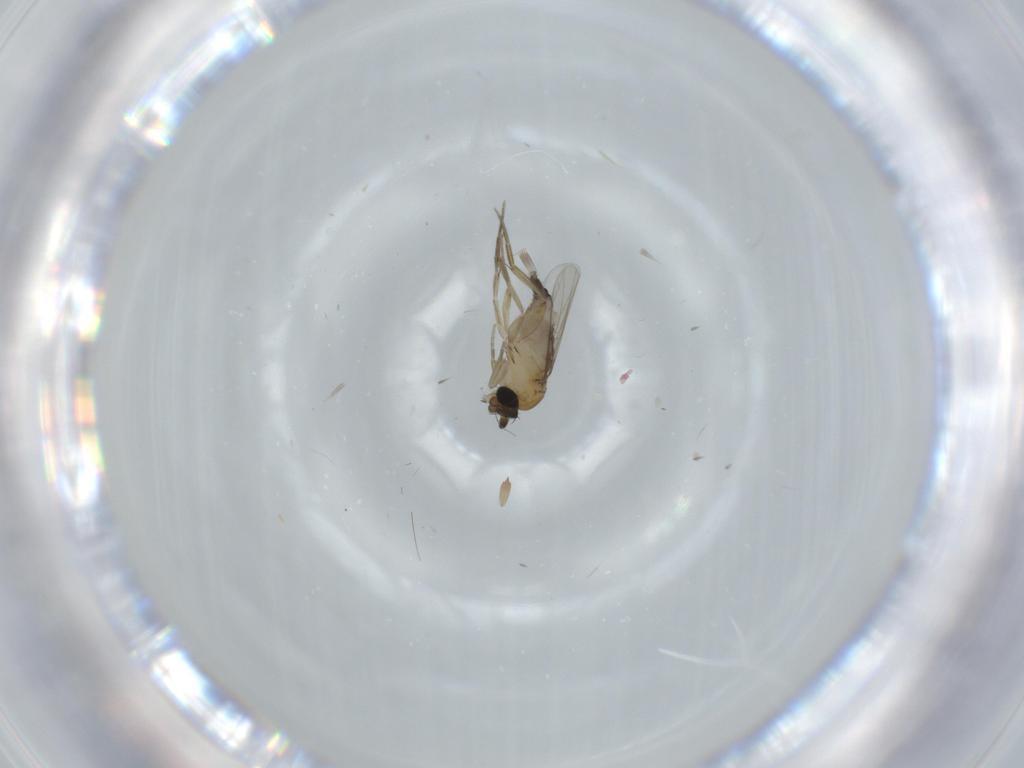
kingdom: Animalia
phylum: Arthropoda
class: Insecta
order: Diptera
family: Phoridae
